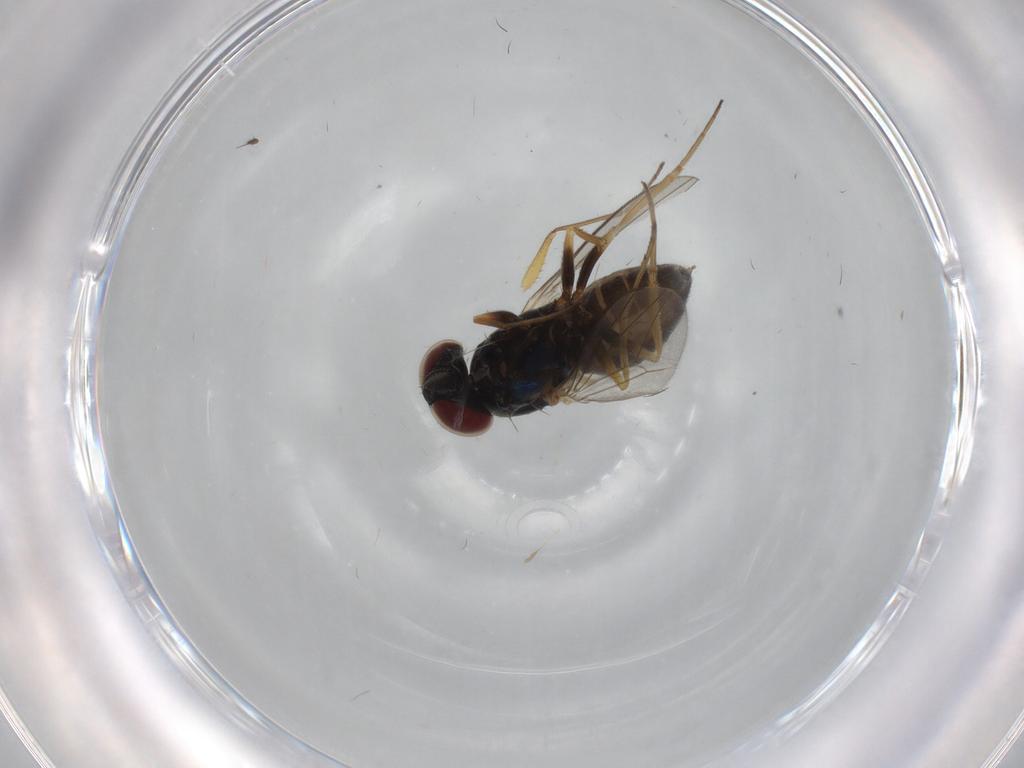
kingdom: Animalia
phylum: Arthropoda
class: Insecta
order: Diptera
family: Dolichopodidae
